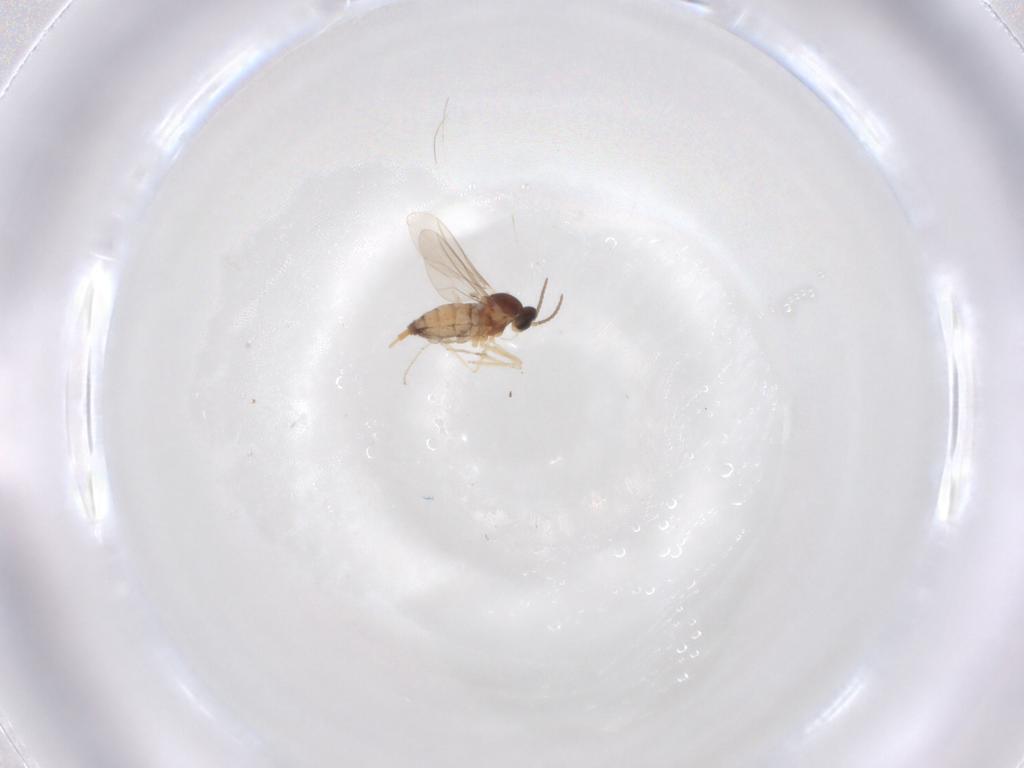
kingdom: Animalia
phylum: Arthropoda
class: Insecta
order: Diptera
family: Cecidomyiidae
